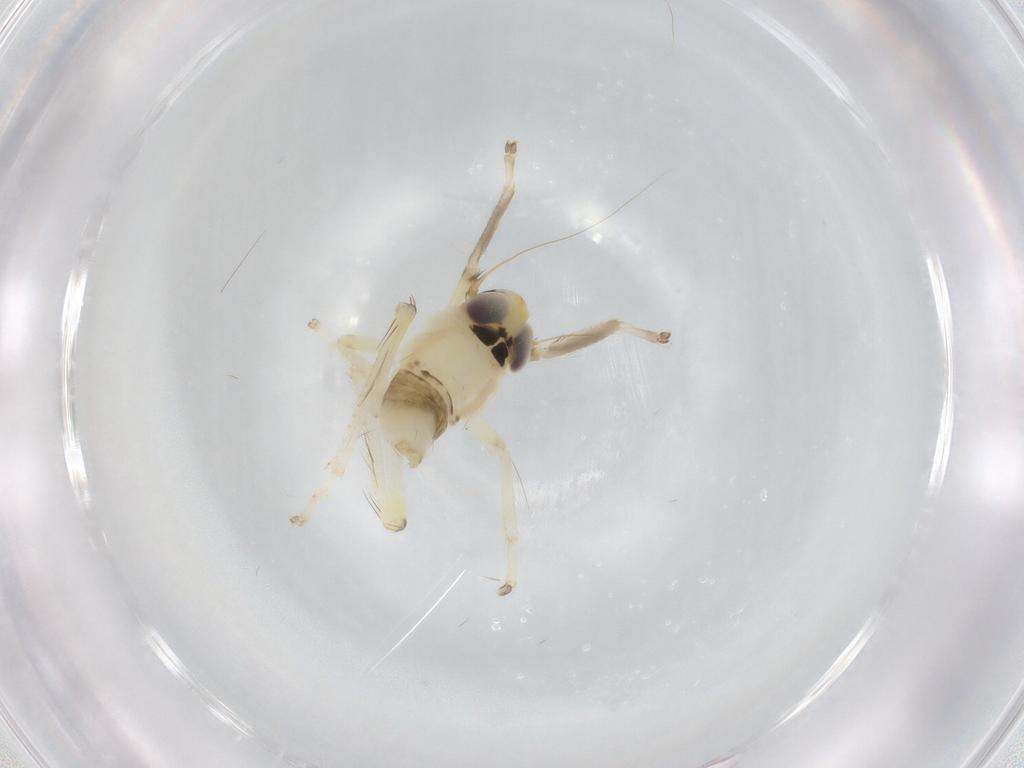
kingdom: Animalia
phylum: Arthropoda
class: Insecta
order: Hemiptera
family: Cicadellidae
